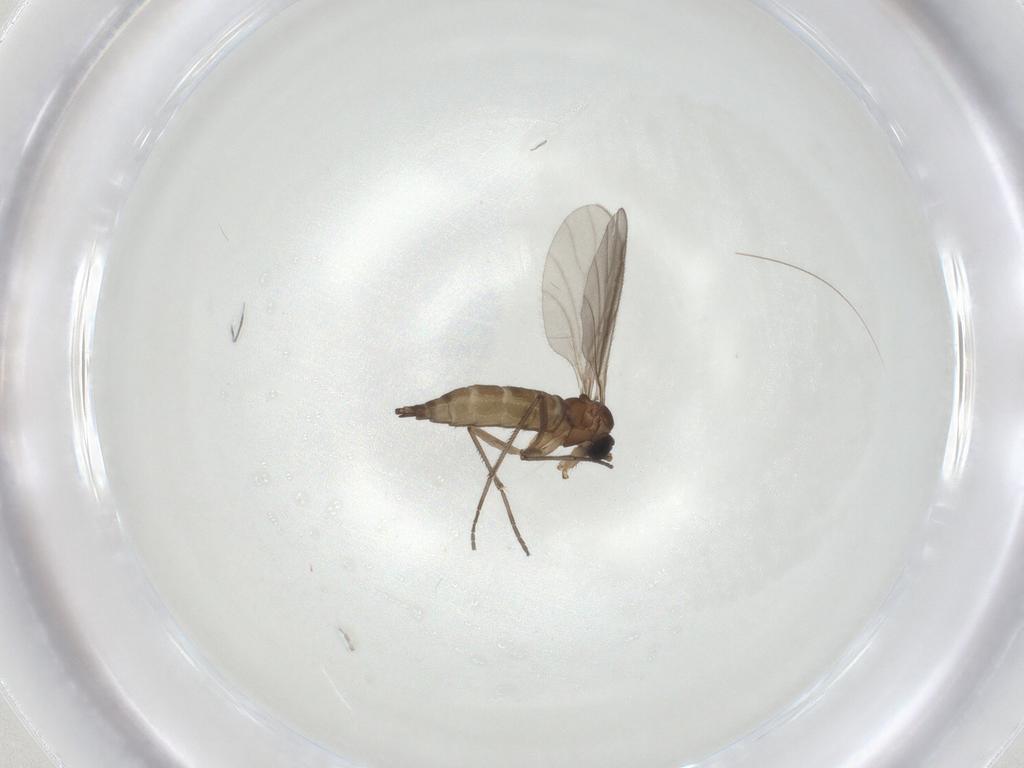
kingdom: Animalia
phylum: Arthropoda
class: Insecta
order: Diptera
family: Sciaridae
